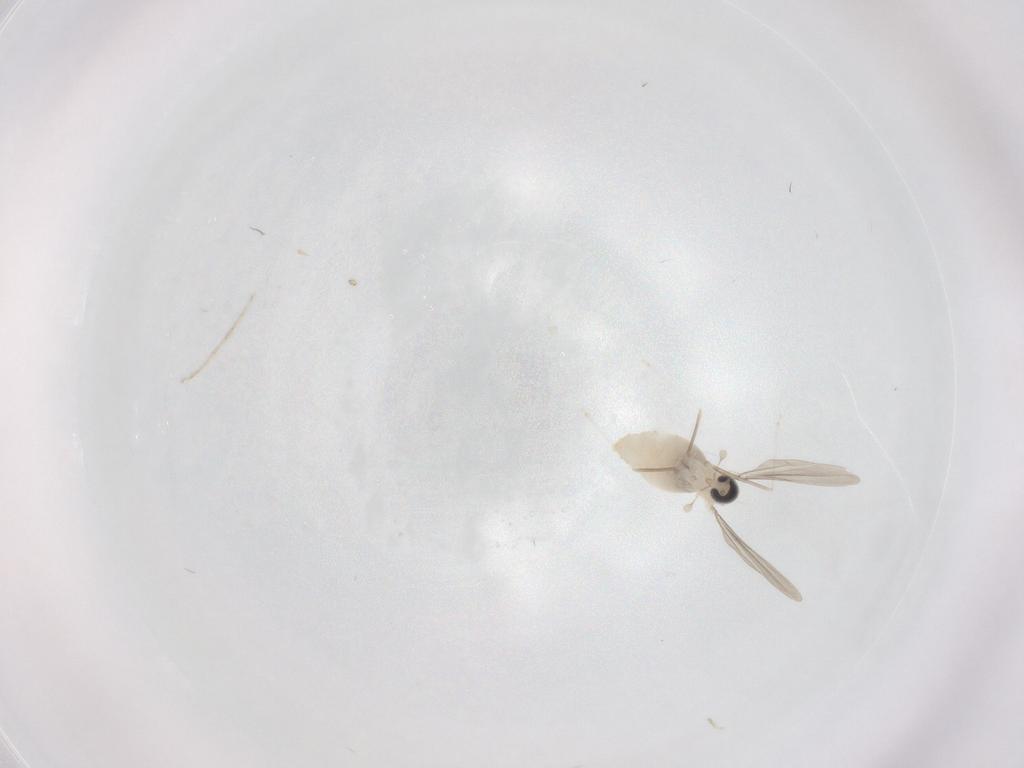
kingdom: Animalia
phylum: Arthropoda
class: Insecta
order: Diptera
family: Cecidomyiidae
